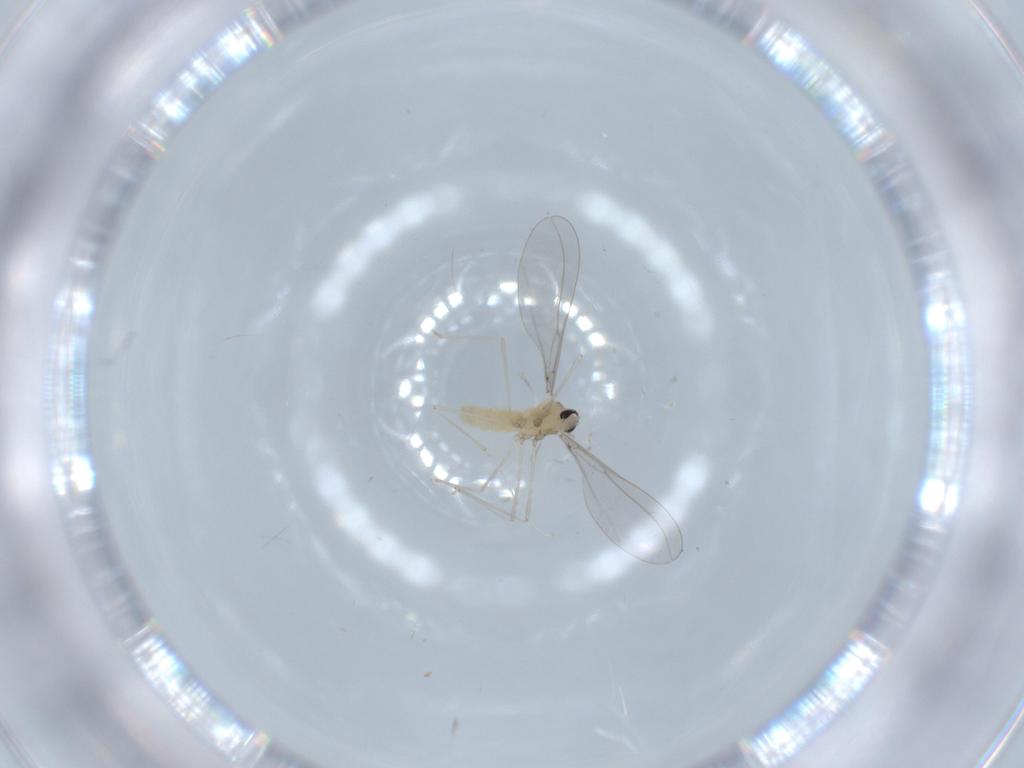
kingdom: Animalia
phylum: Arthropoda
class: Insecta
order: Diptera
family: Cecidomyiidae
